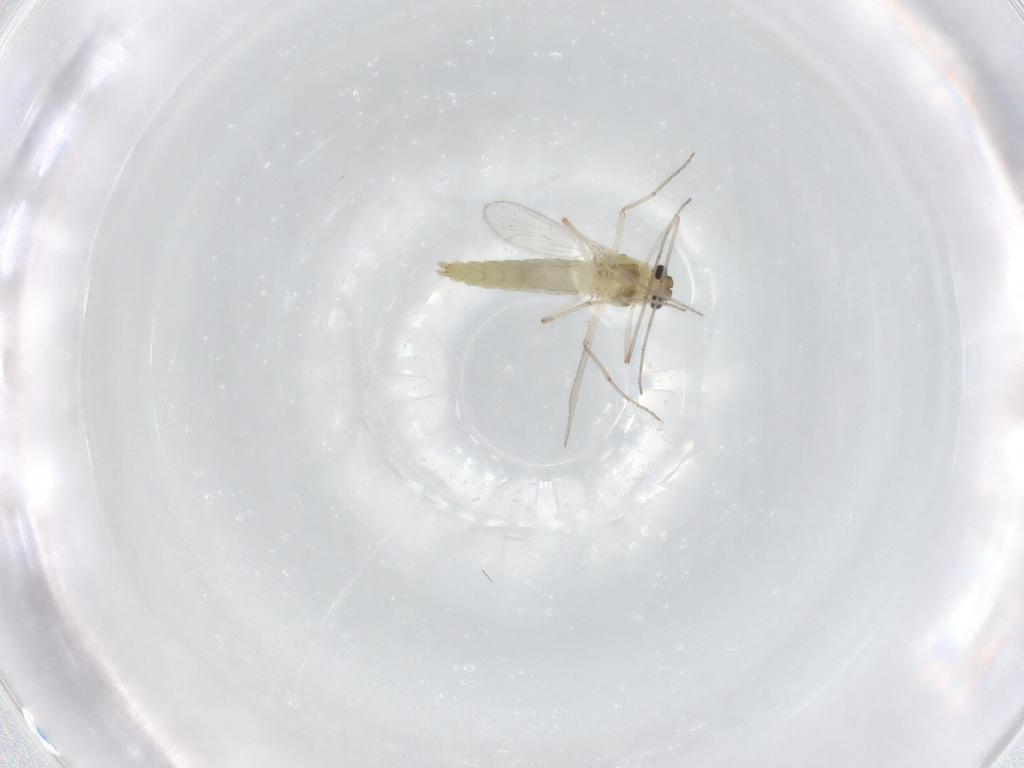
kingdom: Animalia
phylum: Arthropoda
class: Insecta
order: Diptera
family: Chironomidae
